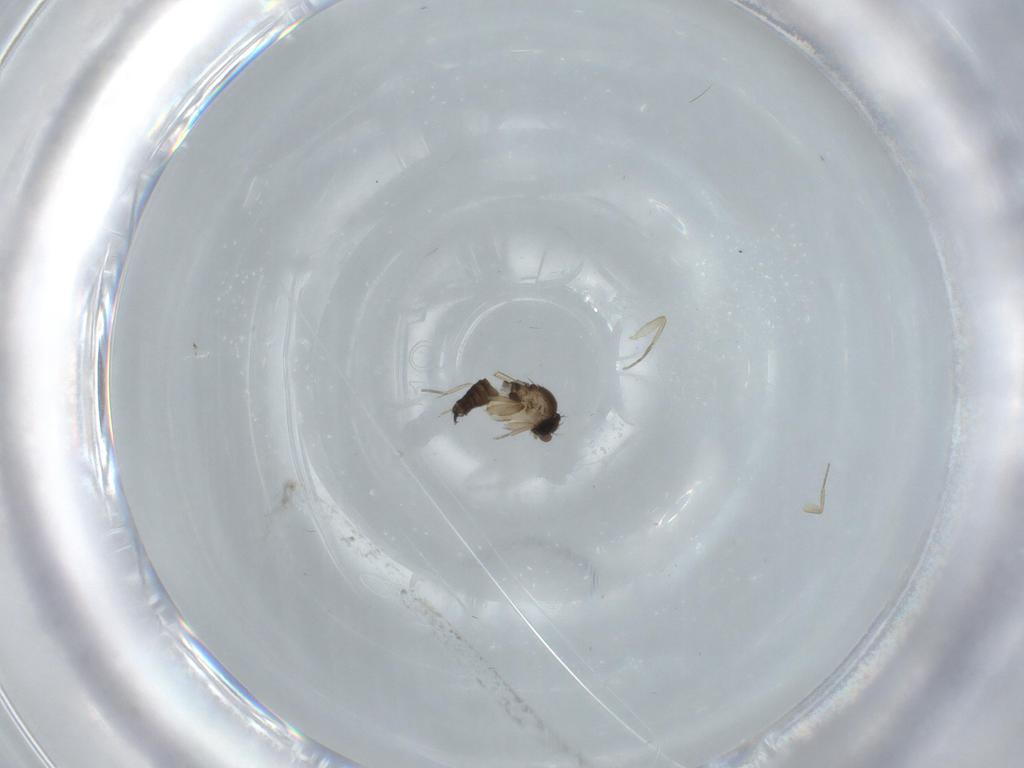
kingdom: Animalia
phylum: Arthropoda
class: Insecta
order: Diptera
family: Phoridae
